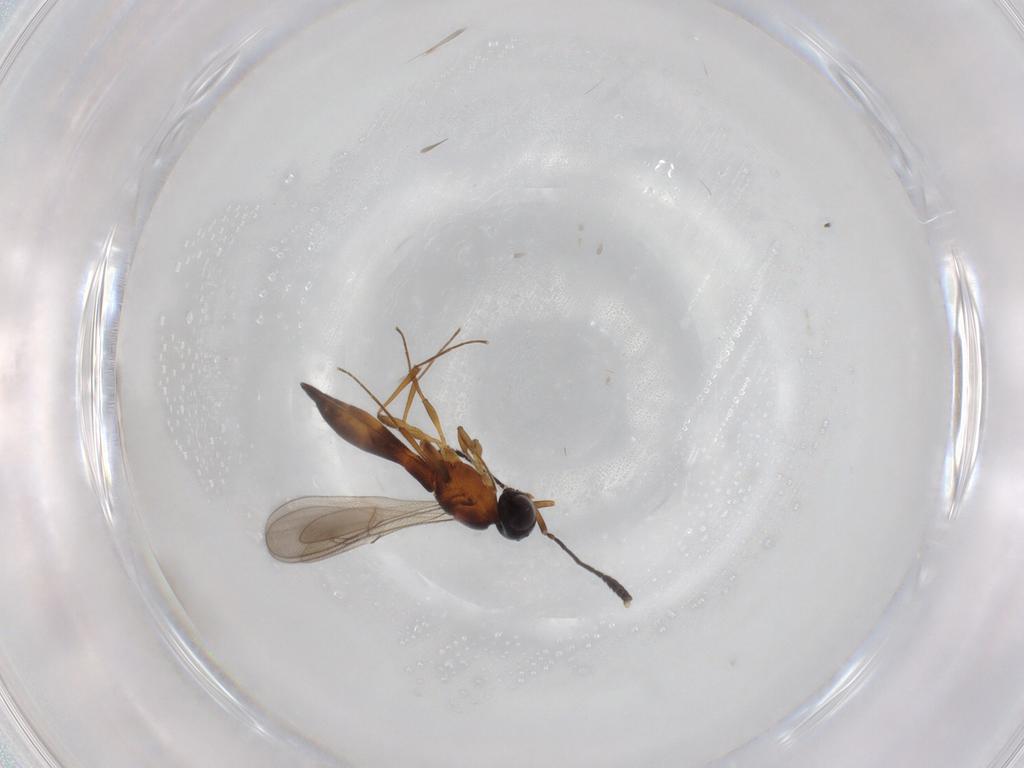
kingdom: Animalia
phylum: Arthropoda
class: Insecta
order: Hymenoptera
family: Scelionidae
